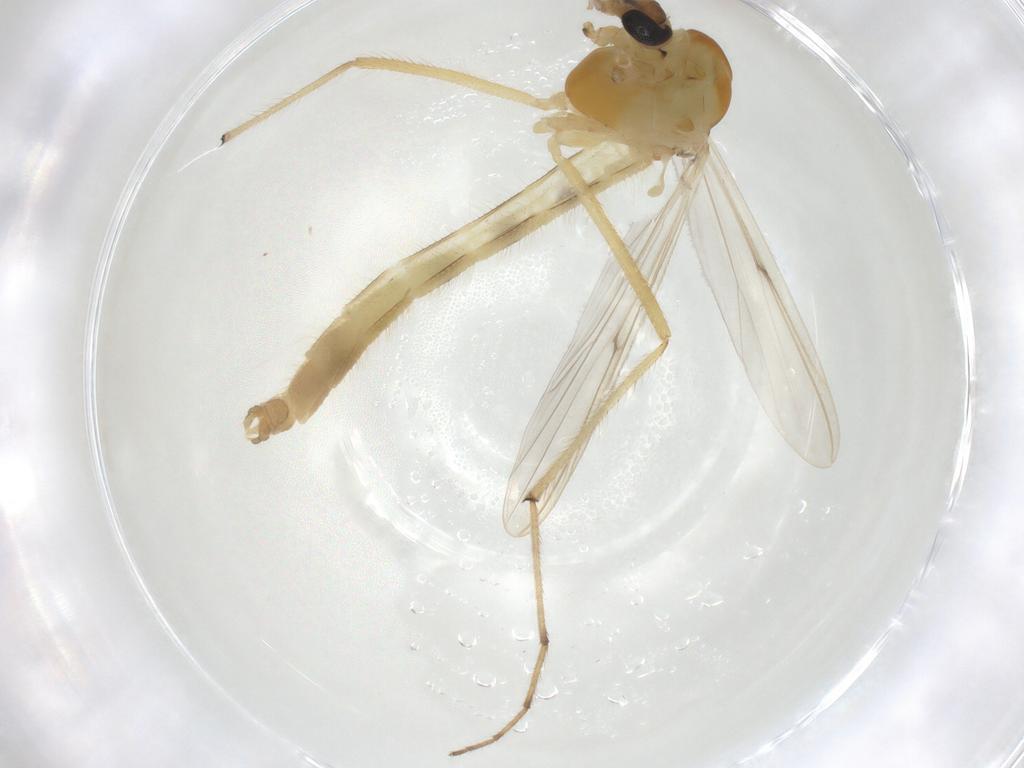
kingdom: Animalia
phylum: Arthropoda
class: Insecta
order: Diptera
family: Chironomidae
